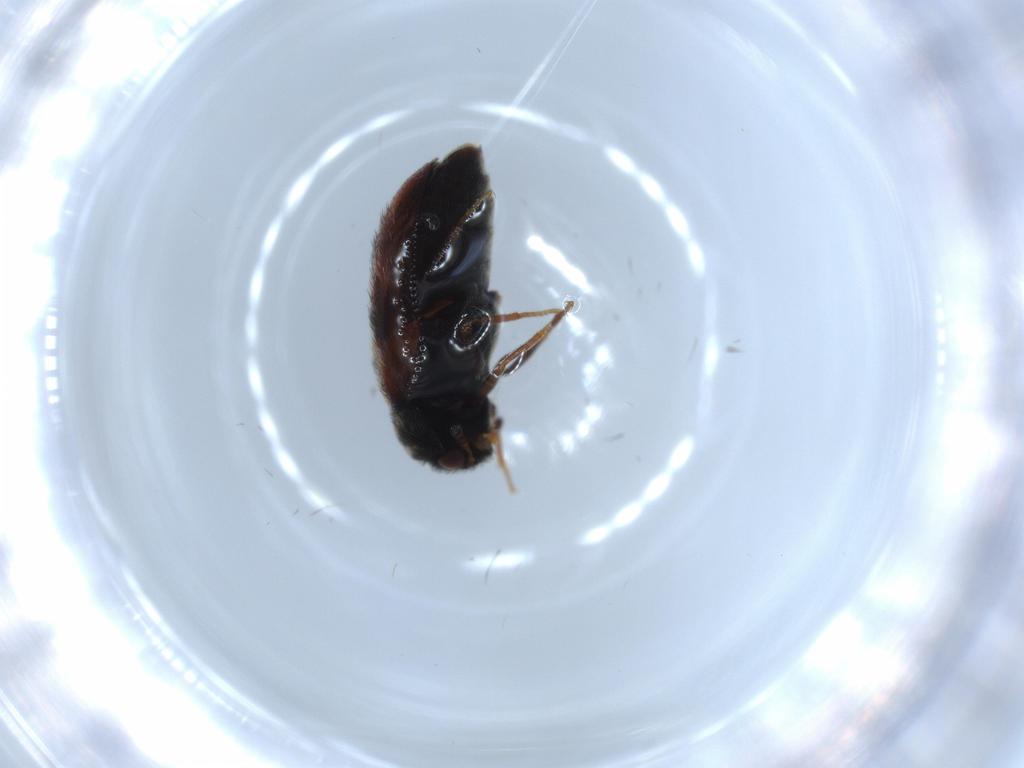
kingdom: Animalia
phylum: Arthropoda
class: Insecta
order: Coleoptera
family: Dermestidae
